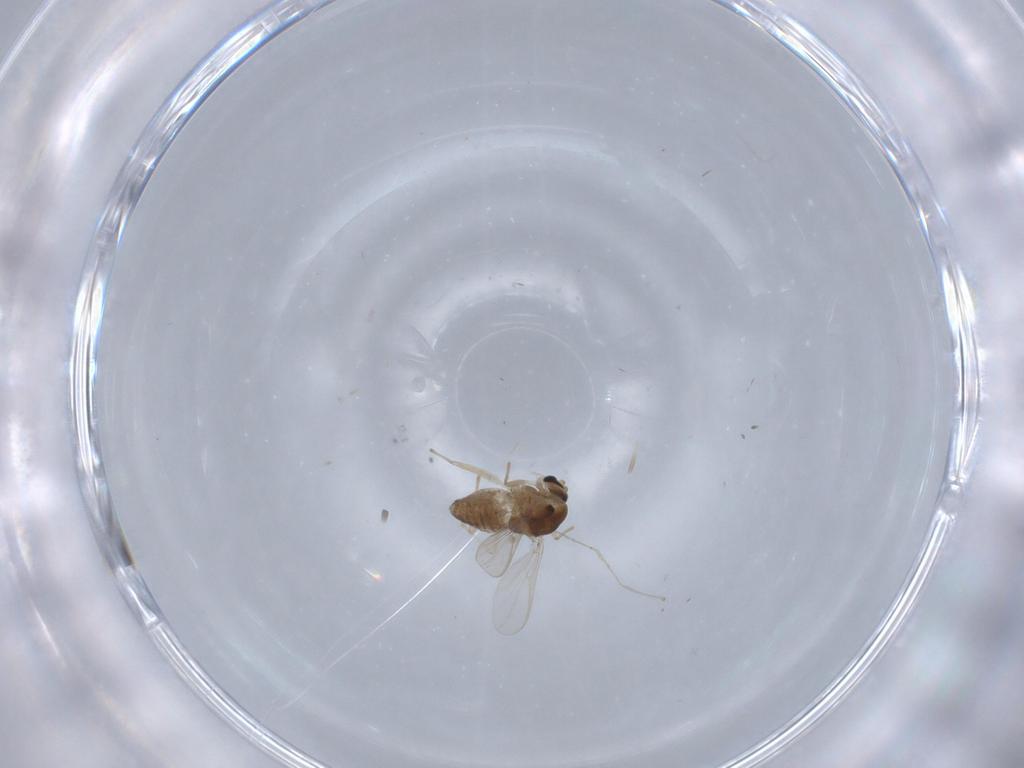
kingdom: Animalia
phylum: Arthropoda
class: Insecta
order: Diptera
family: Chironomidae
